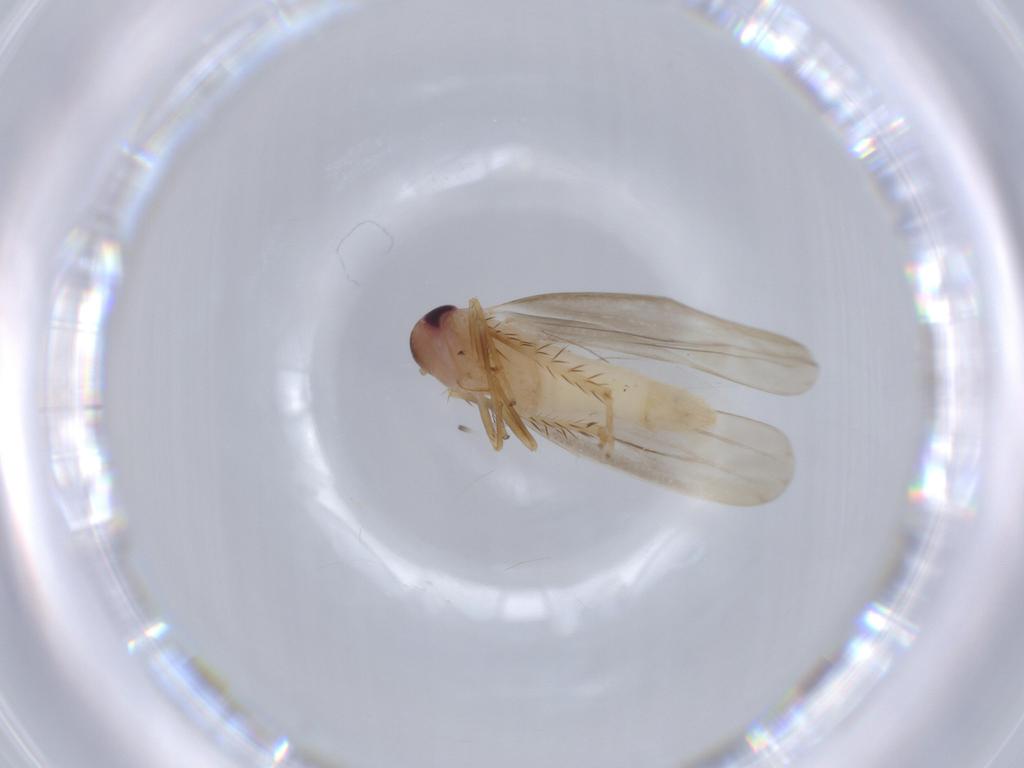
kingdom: Animalia
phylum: Arthropoda
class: Insecta
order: Hemiptera
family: Cicadellidae
